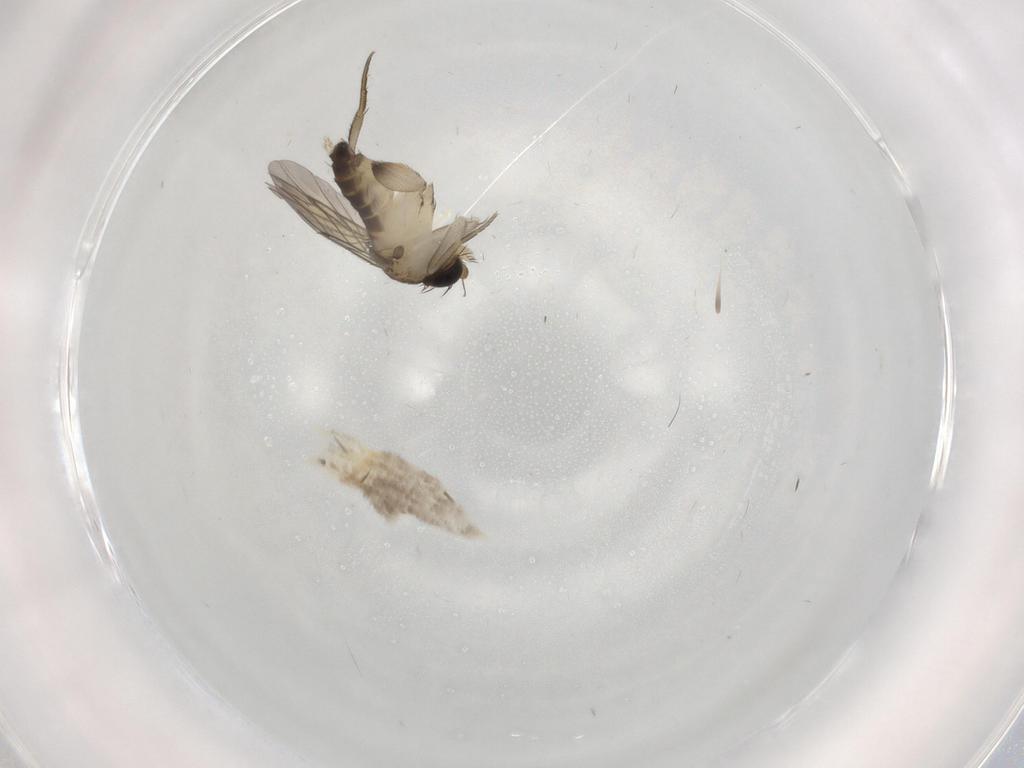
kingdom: Animalia
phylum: Arthropoda
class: Insecta
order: Diptera
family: Phoridae
